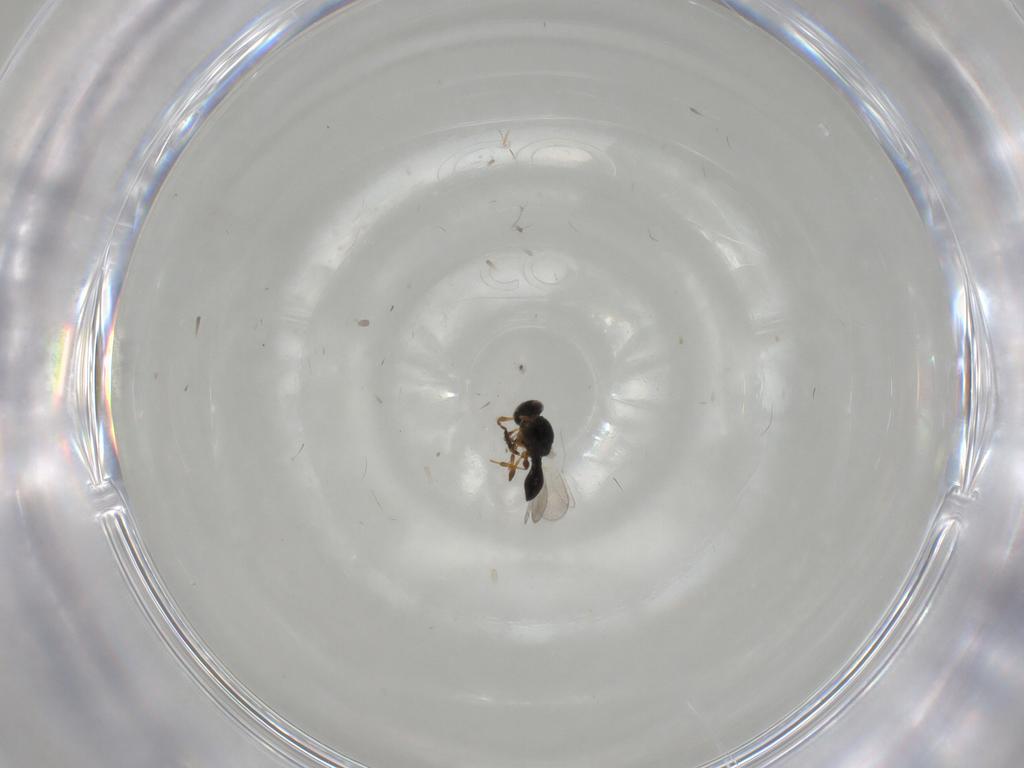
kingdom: Animalia
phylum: Arthropoda
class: Insecta
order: Hymenoptera
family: Platygastridae
